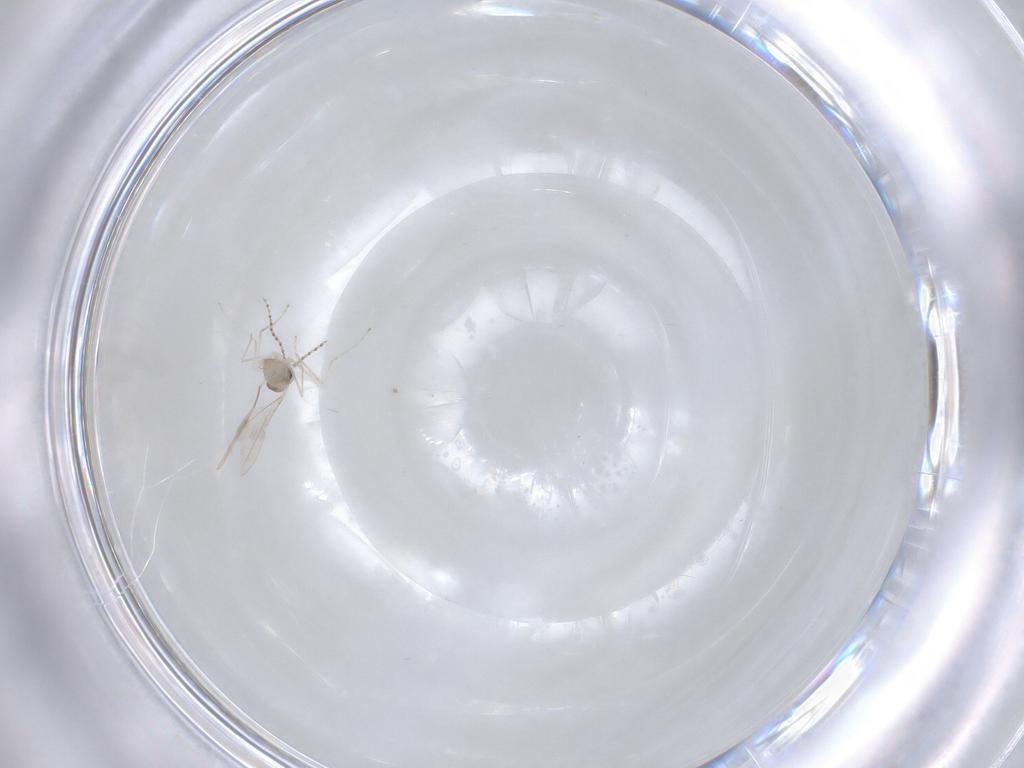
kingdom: Animalia
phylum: Arthropoda
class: Insecta
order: Diptera
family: Cecidomyiidae
